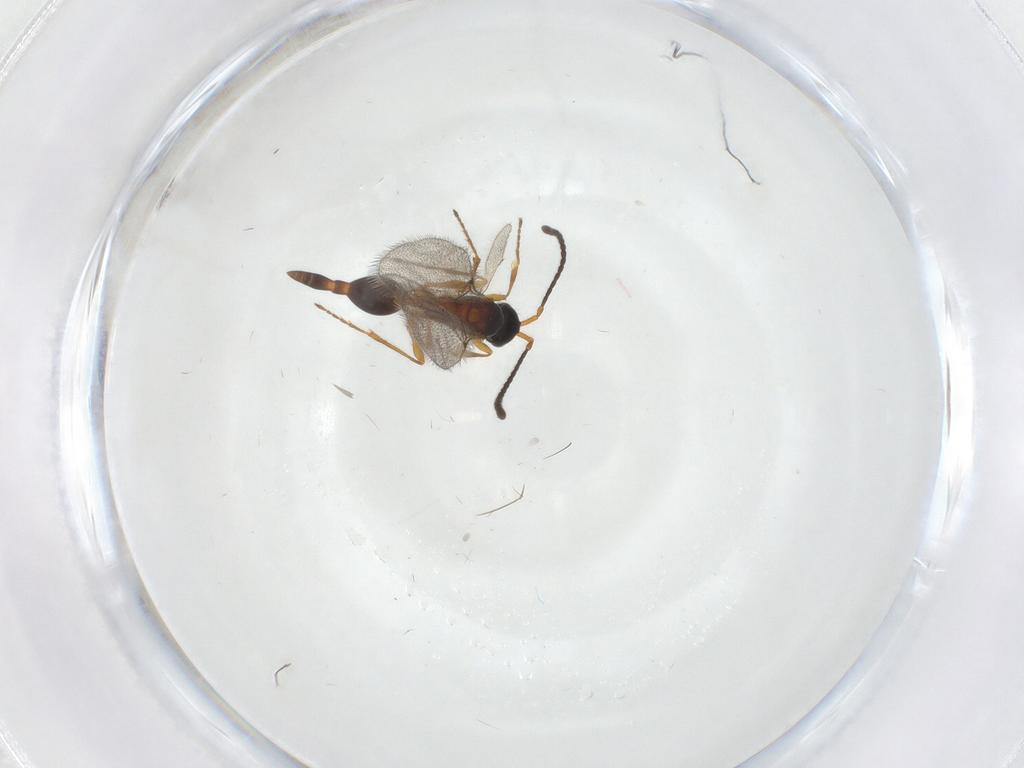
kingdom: Animalia
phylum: Arthropoda
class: Insecta
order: Hymenoptera
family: Diapriidae
